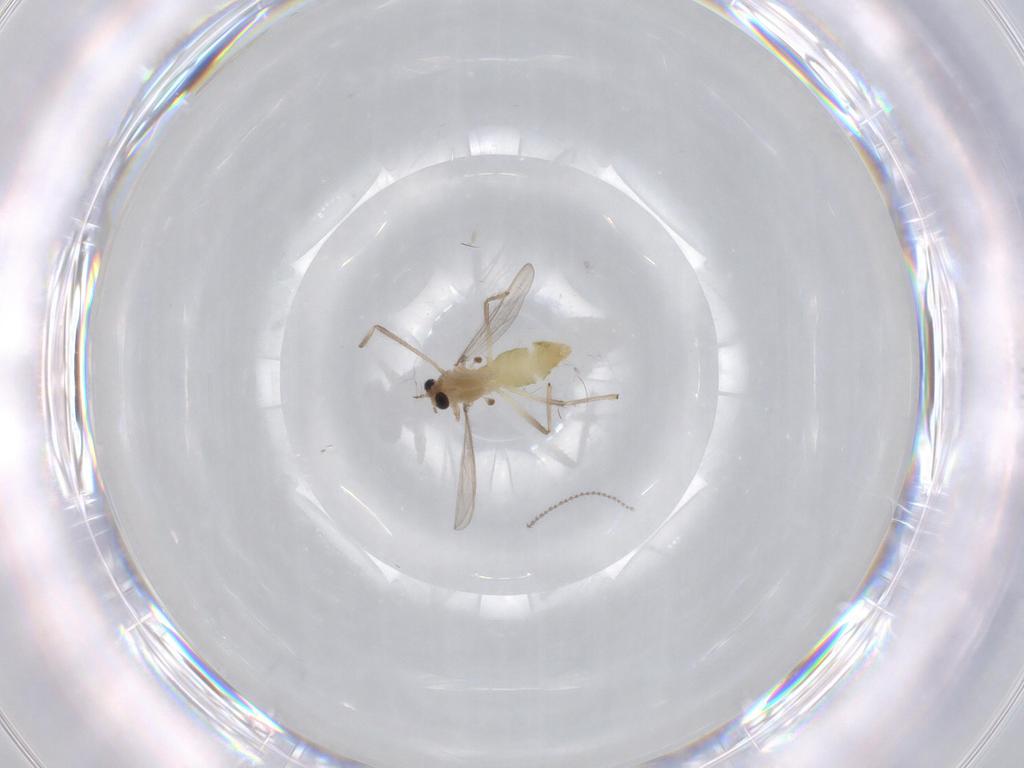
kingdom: Animalia
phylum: Arthropoda
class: Insecta
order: Diptera
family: Chironomidae
